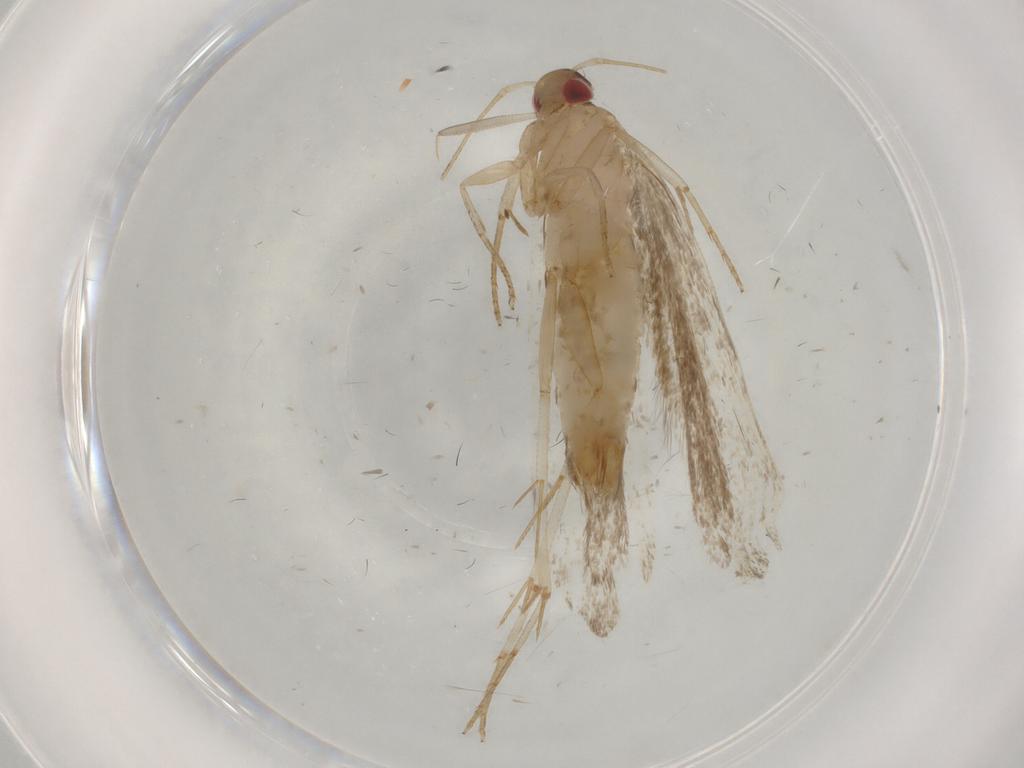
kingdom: Animalia
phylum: Arthropoda
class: Insecta
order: Lepidoptera
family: Gelechiidae
